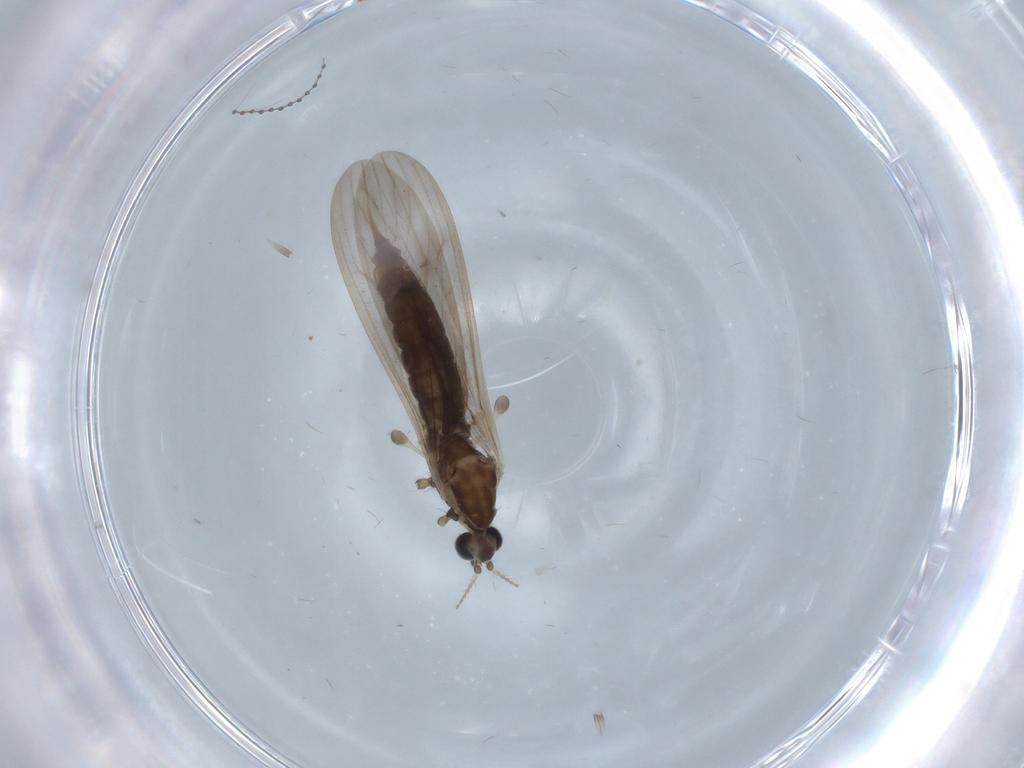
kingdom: Animalia
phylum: Arthropoda
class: Insecta
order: Diptera
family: Limoniidae
